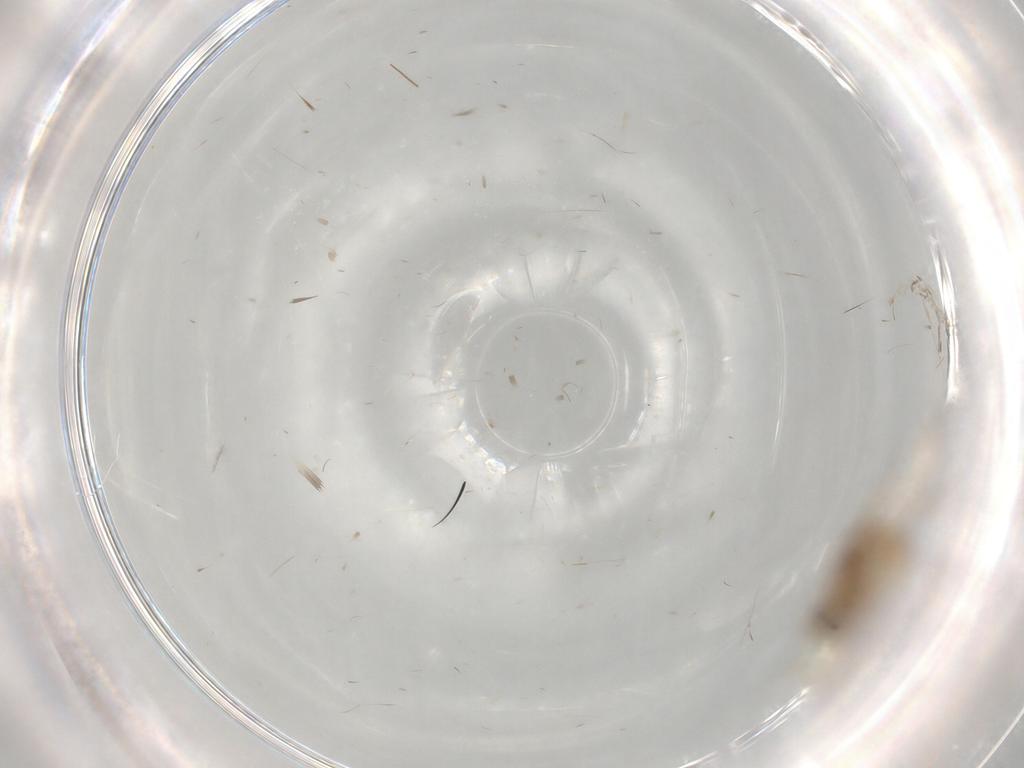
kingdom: Animalia
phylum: Arthropoda
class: Insecta
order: Diptera
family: Chironomidae
